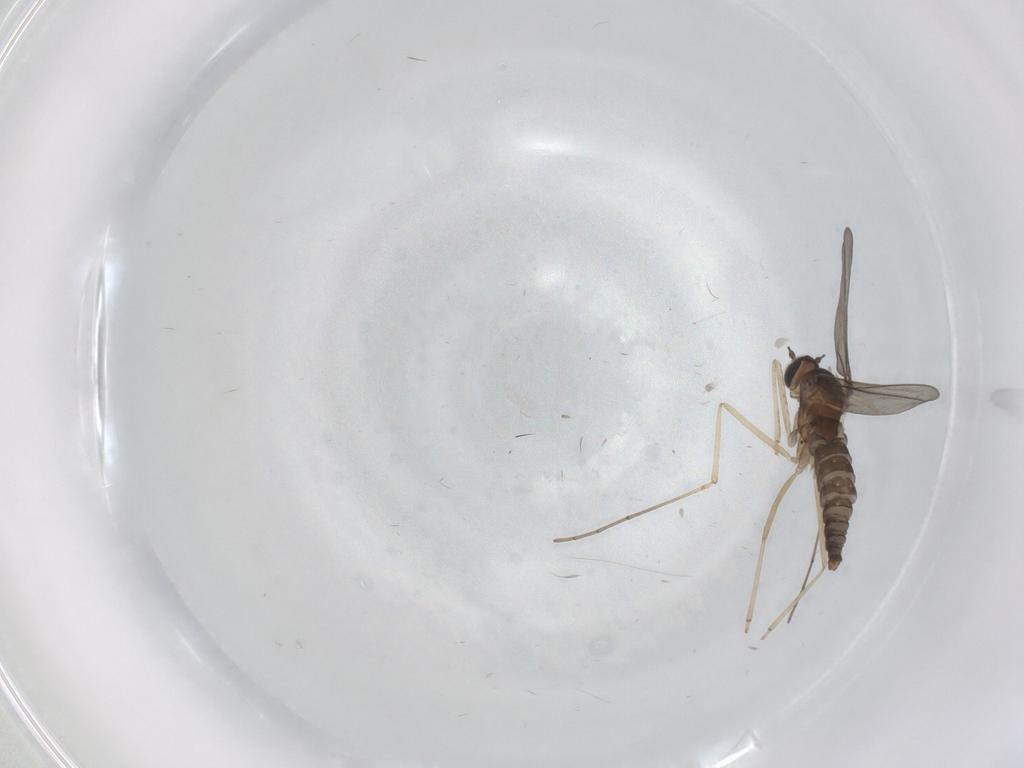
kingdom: Animalia
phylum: Arthropoda
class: Insecta
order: Diptera
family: Cecidomyiidae
